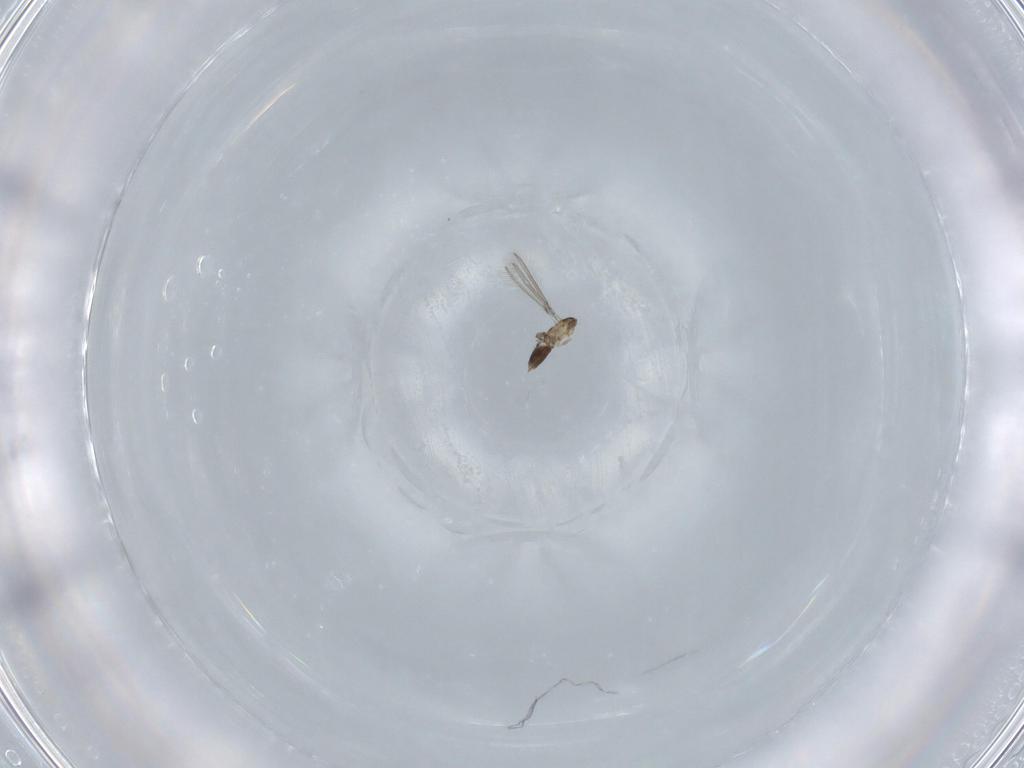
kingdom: Animalia
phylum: Arthropoda
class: Insecta
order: Hymenoptera
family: Mymaridae
